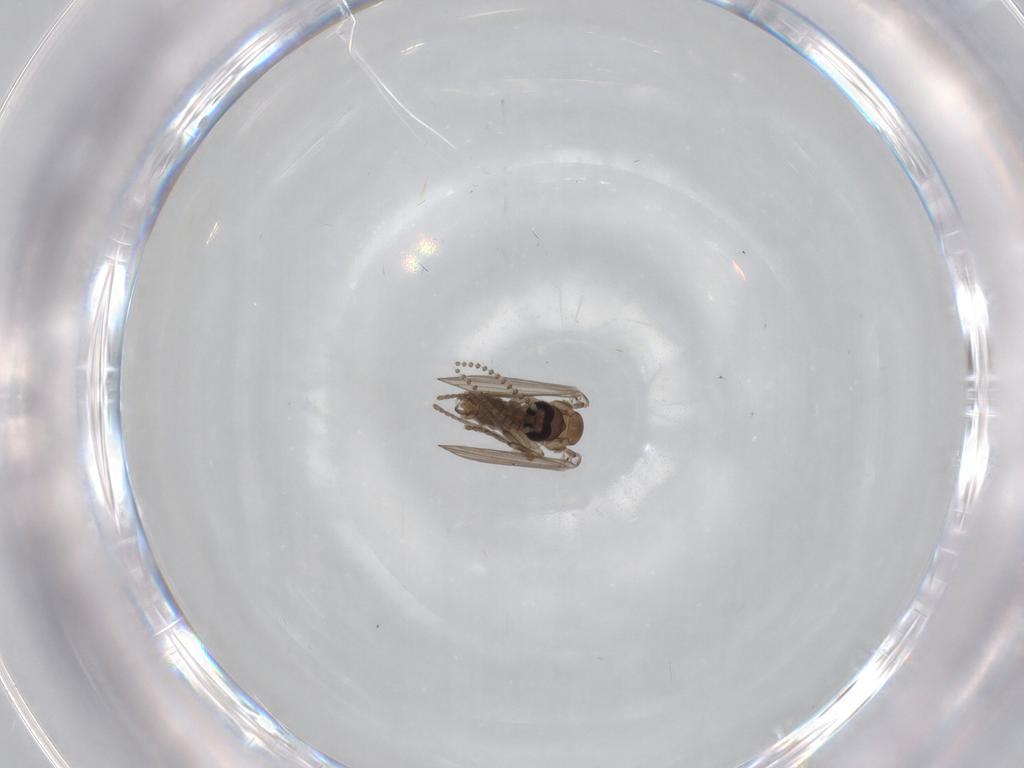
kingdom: Animalia
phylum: Arthropoda
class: Insecta
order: Diptera
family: Psychodidae
